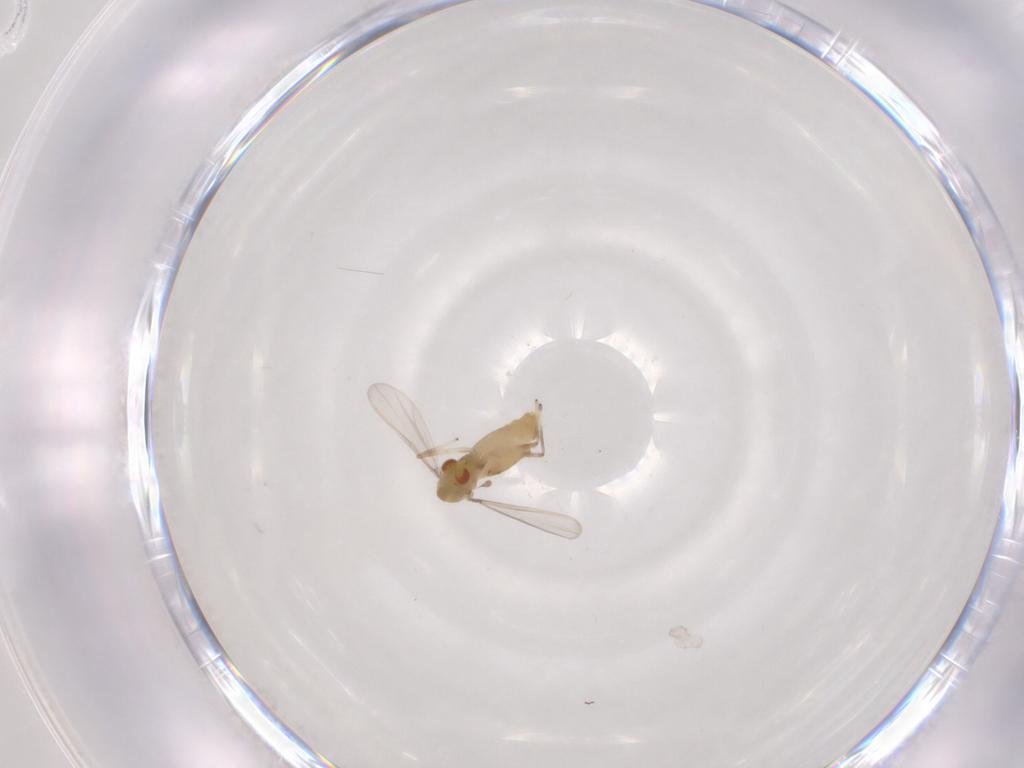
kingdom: Animalia
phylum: Arthropoda
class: Insecta
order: Diptera
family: Chironomidae
